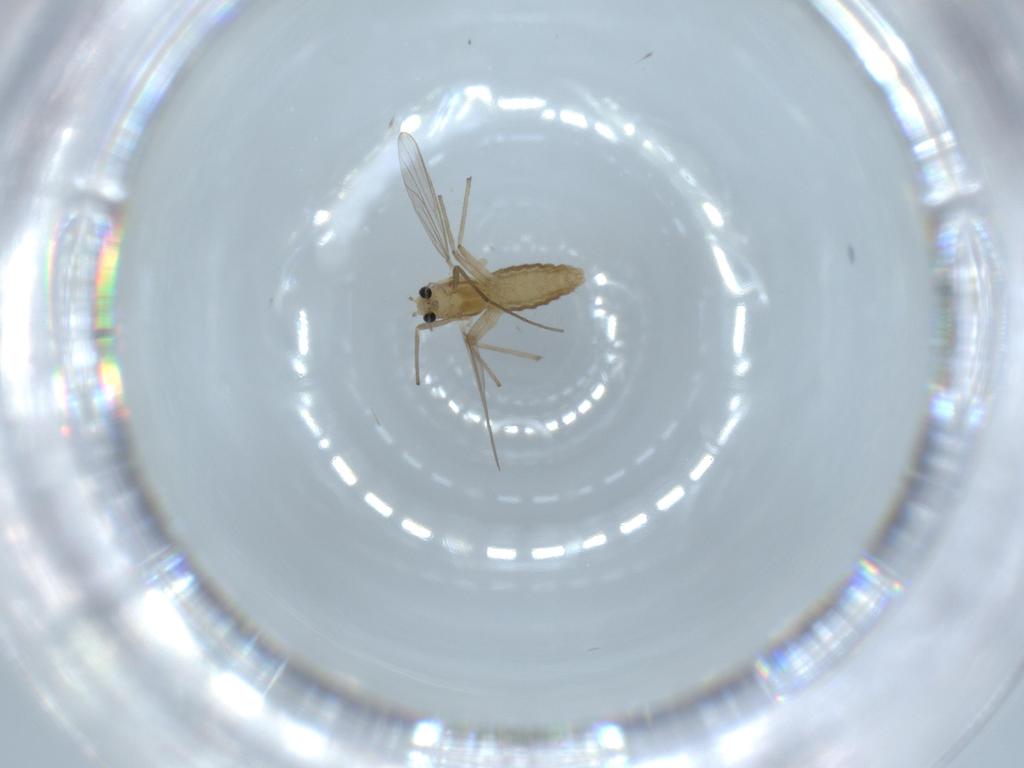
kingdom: Animalia
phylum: Arthropoda
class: Insecta
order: Diptera
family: Chironomidae
